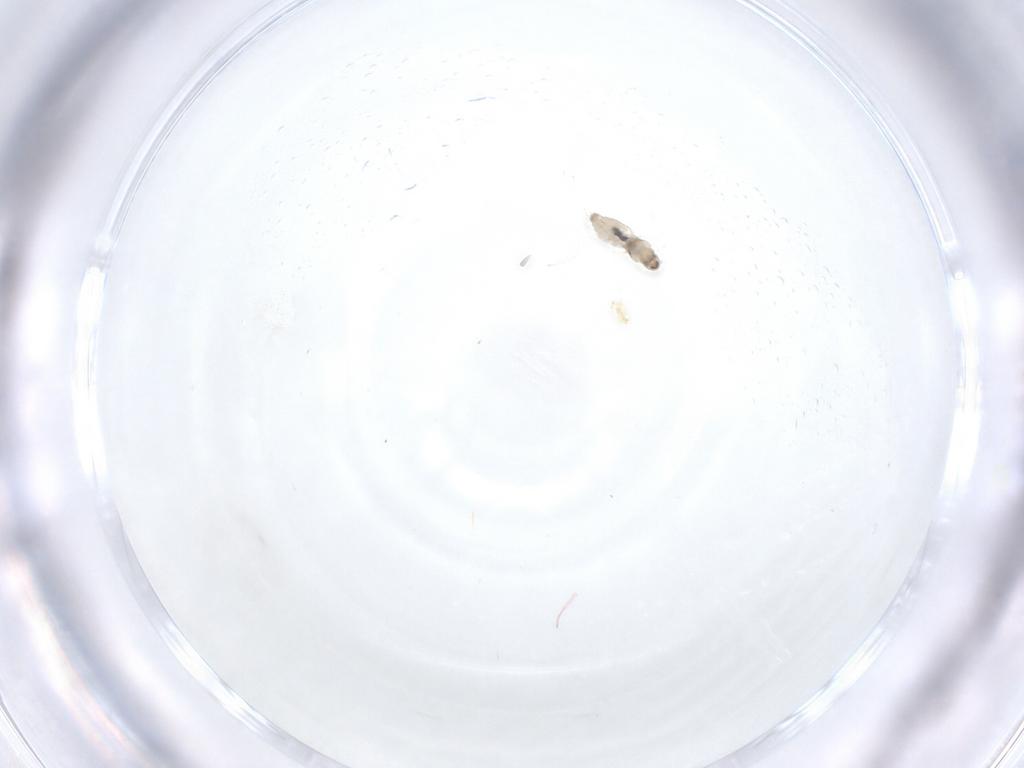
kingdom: Animalia
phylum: Arthropoda
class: Insecta
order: Diptera
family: Cecidomyiidae
